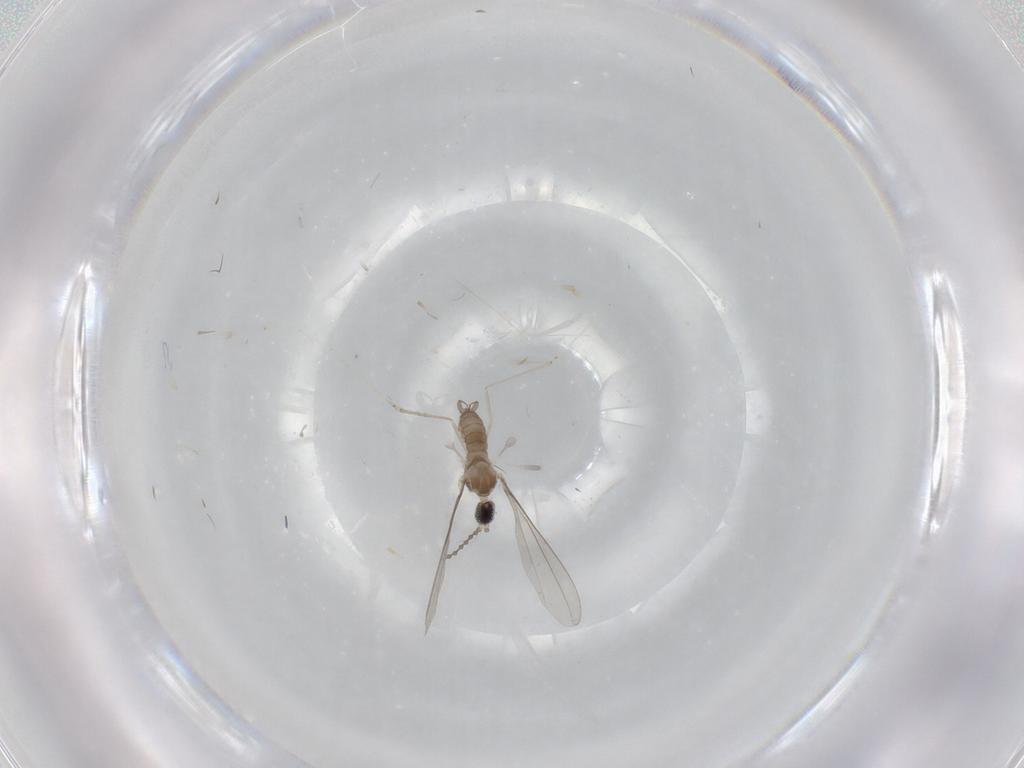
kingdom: Animalia
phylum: Arthropoda
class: Insecta
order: Diptera
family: Cecidomyiidae
